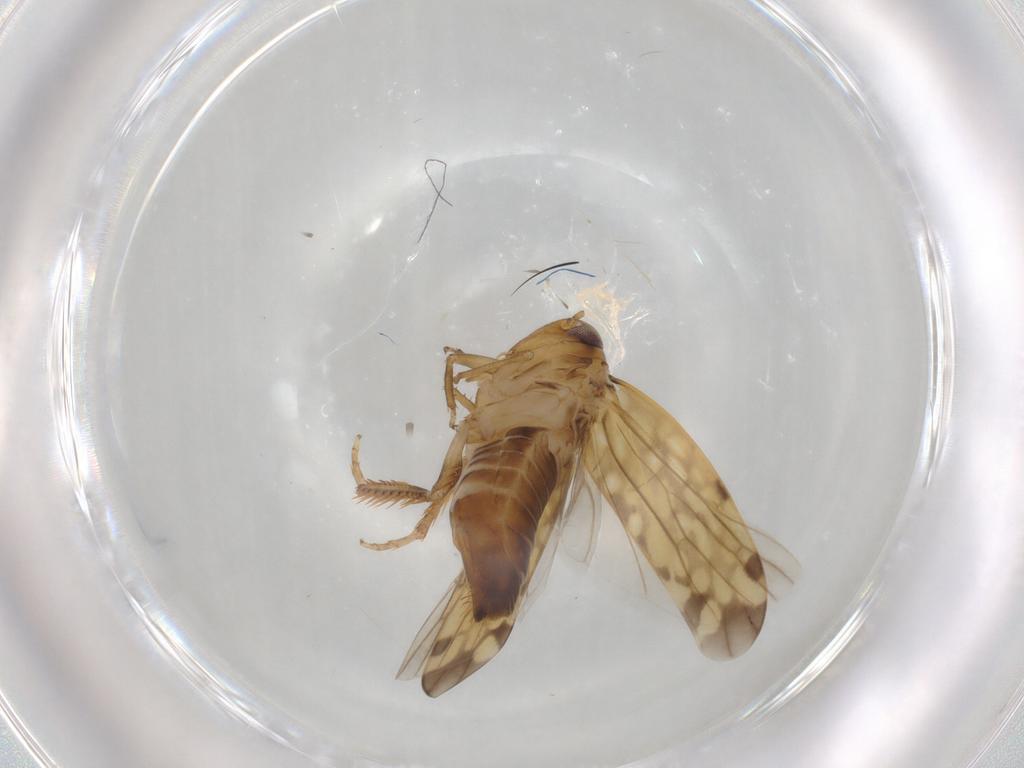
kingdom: Animalia
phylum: Arthropoda
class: Insecta
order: Hemiptera
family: Cicadellidae
